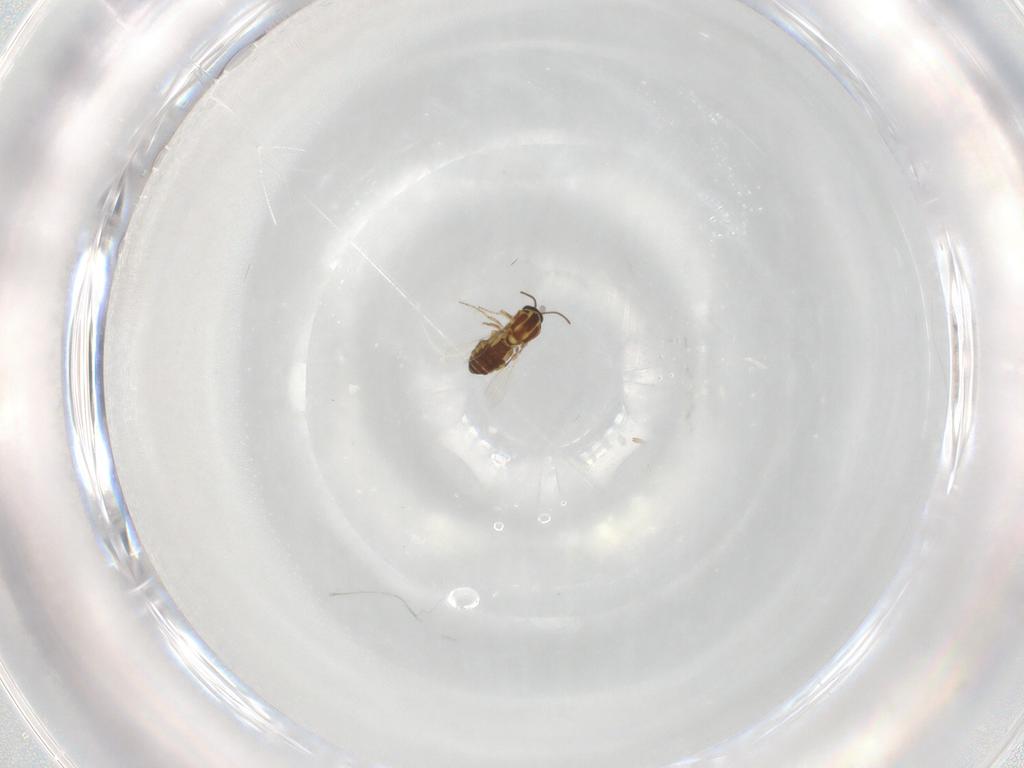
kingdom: Animalia
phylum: Arthropoda
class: Insecta
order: Diptera
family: Ceratopogonidae
